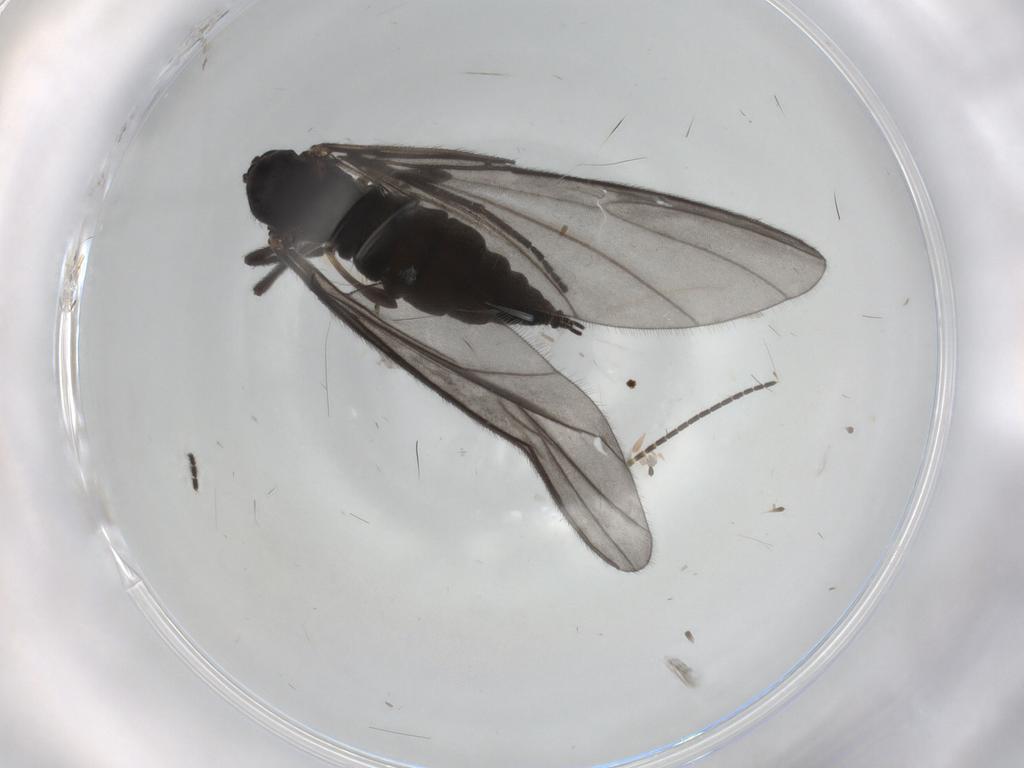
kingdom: Animalia
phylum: Arthropoda
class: Insecta
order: Diptera
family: Sciaridae
